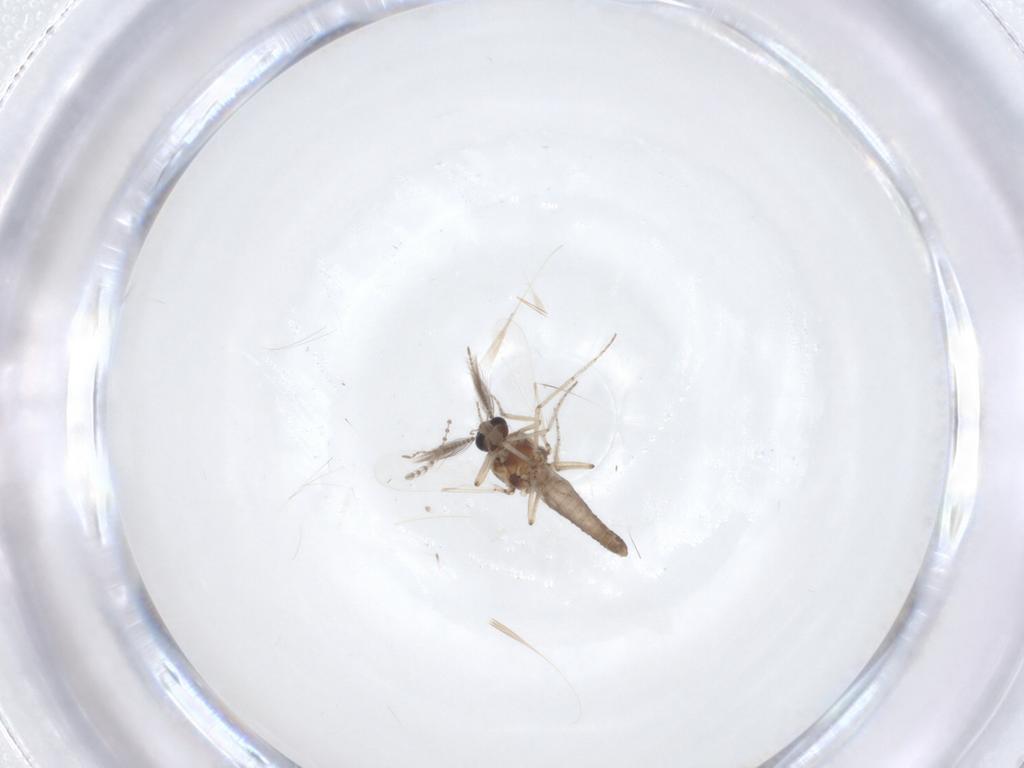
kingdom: Animalia
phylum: Arthropoda
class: Insecta
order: Diptera
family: Ceratopogonidae
